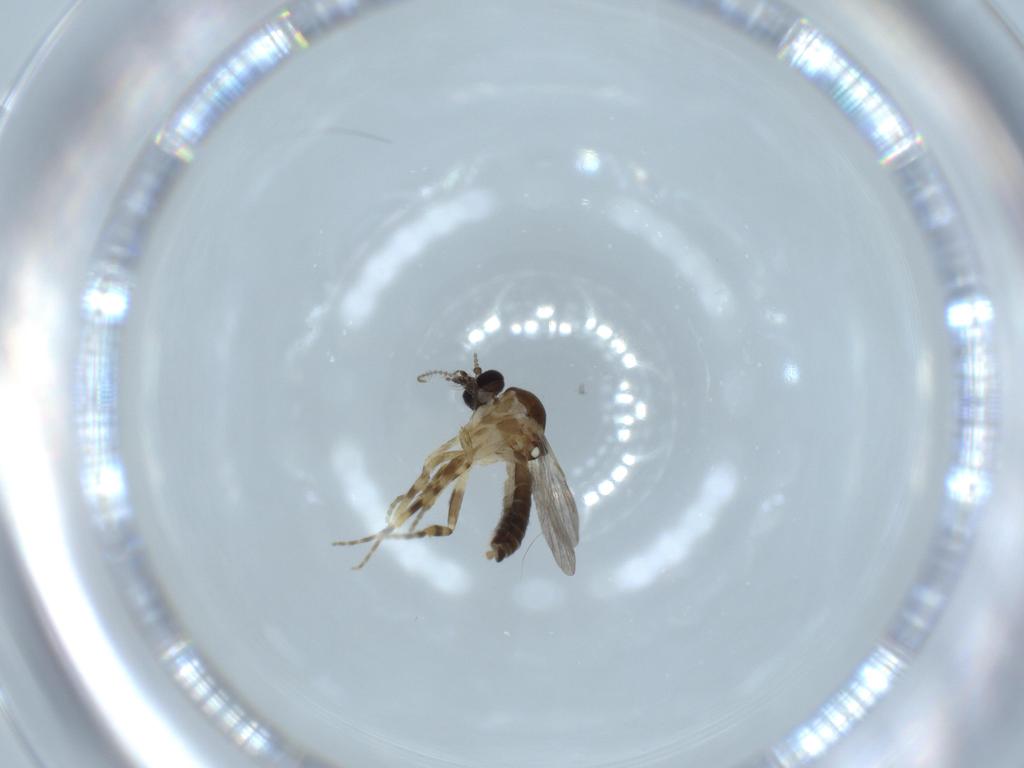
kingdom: Animalia
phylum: Arthropoda
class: Insecta
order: Diptera
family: Ceratopogonidae
